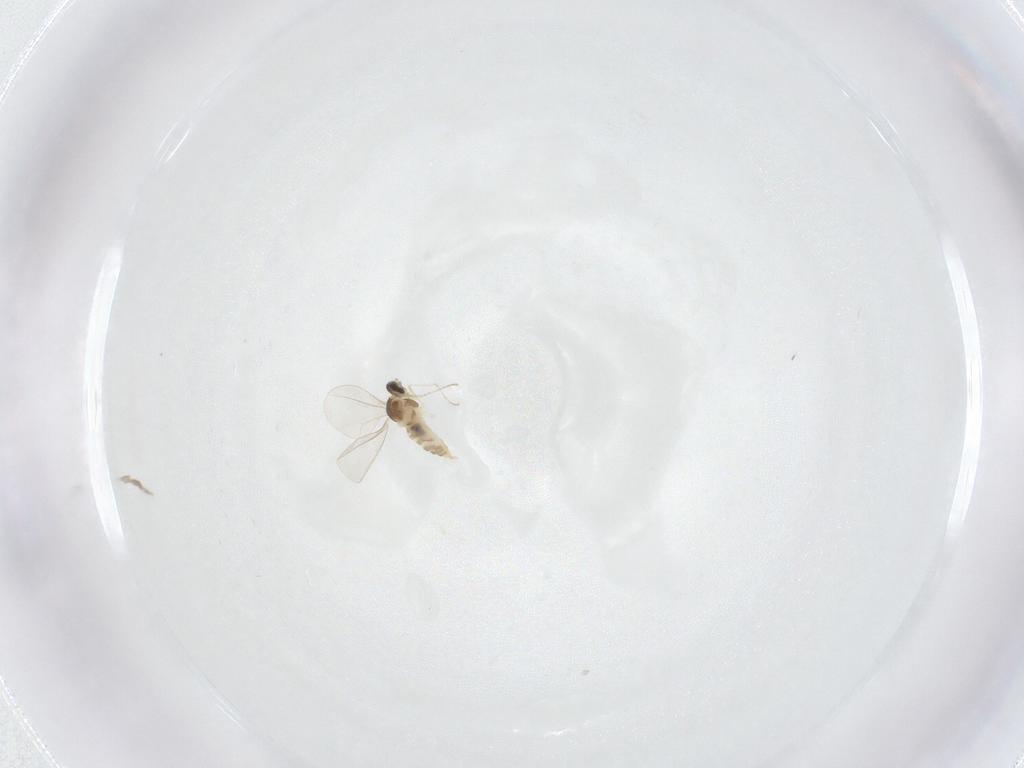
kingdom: Animalia
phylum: Arthropoda
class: Insecta
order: Diptera
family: Cecidomyiidae
